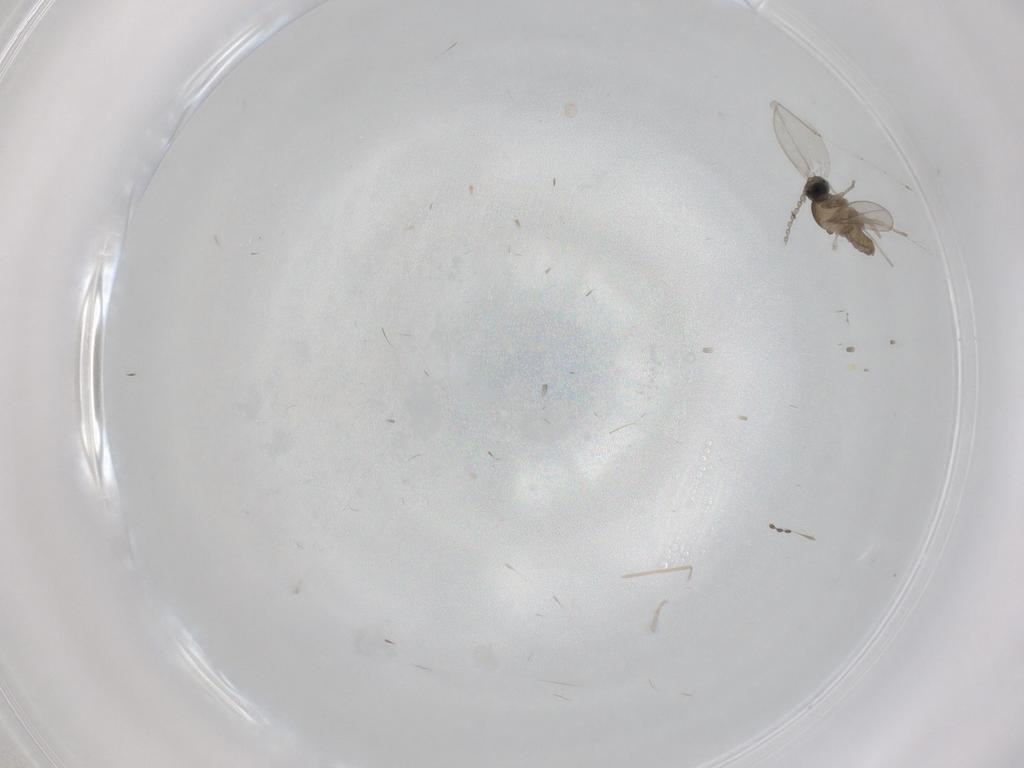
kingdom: Animalia
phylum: Arthropoda
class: Insecta
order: Diptera
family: Cecidomyiidae
